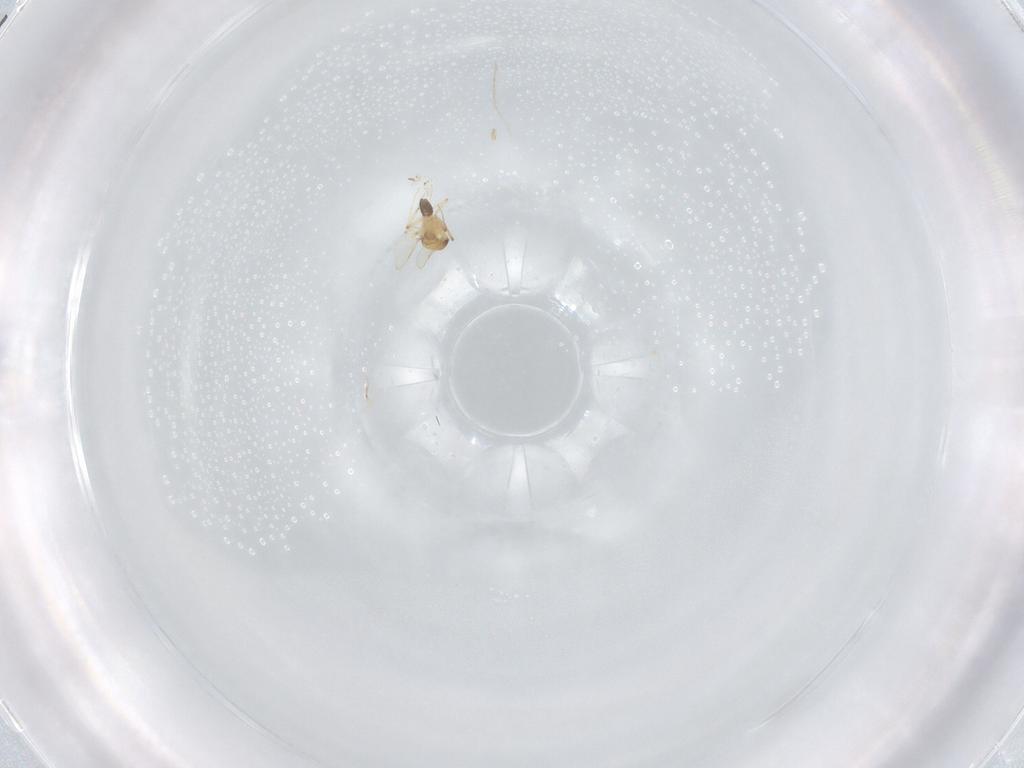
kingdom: Animalia
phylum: Arthropoda
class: Insecta
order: Diptera
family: Ceratopogonidae
